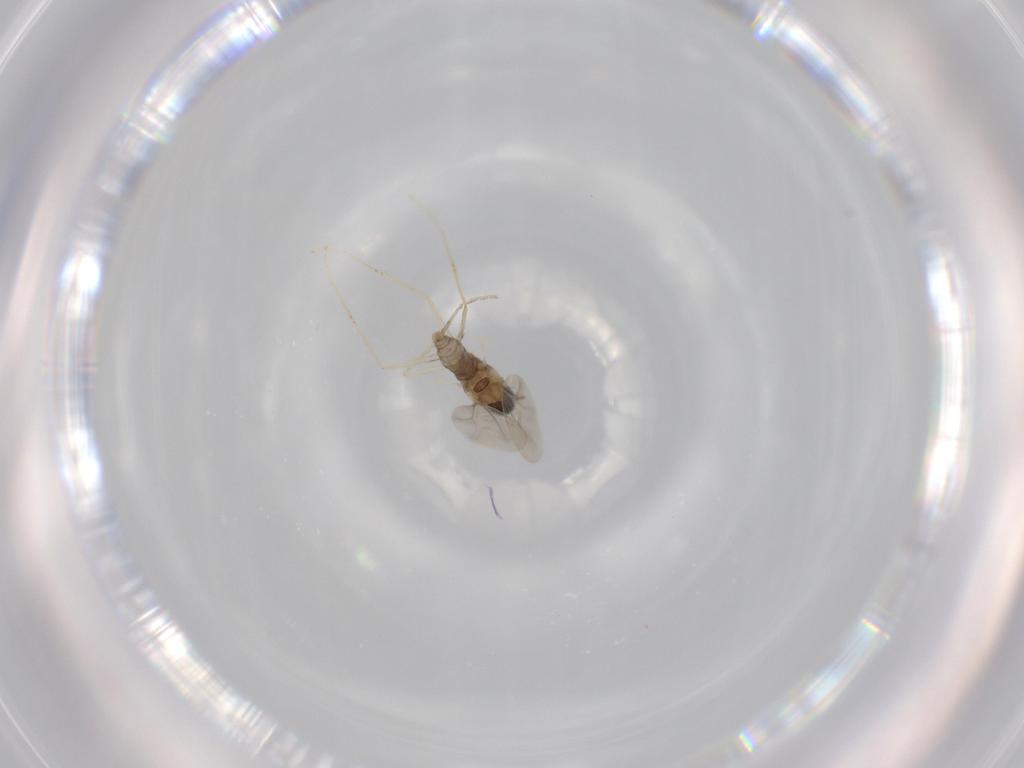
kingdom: Animalia
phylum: Arthropoda
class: Insecta
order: Diptera
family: Cecidomyiidae
